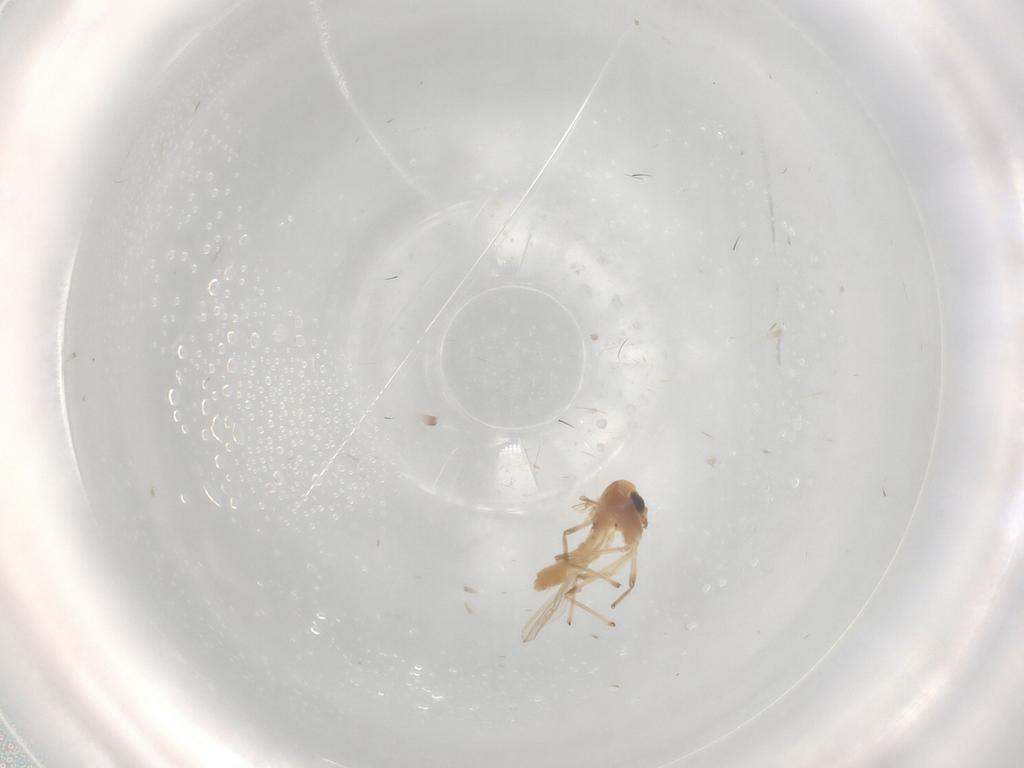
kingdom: Animalia
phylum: Arthropoda
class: Insecta
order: Diptera
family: Chironomidae
